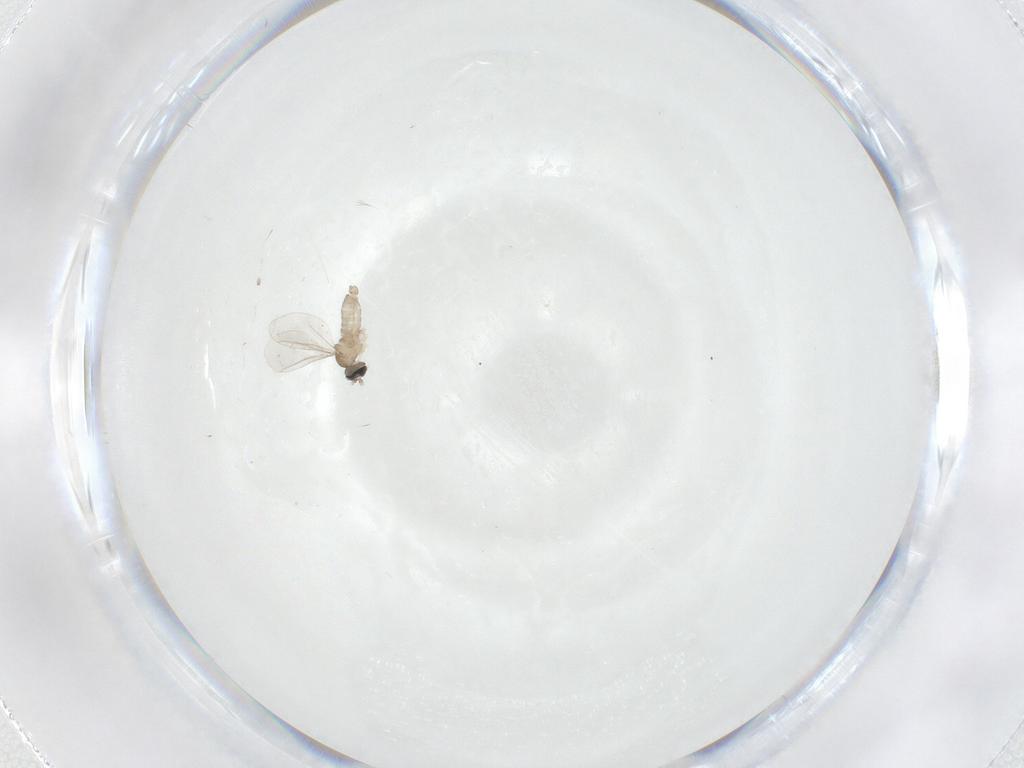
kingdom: Animalia
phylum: Arthropoda
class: Insecta
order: Diptera
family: Cecidomyiidae
